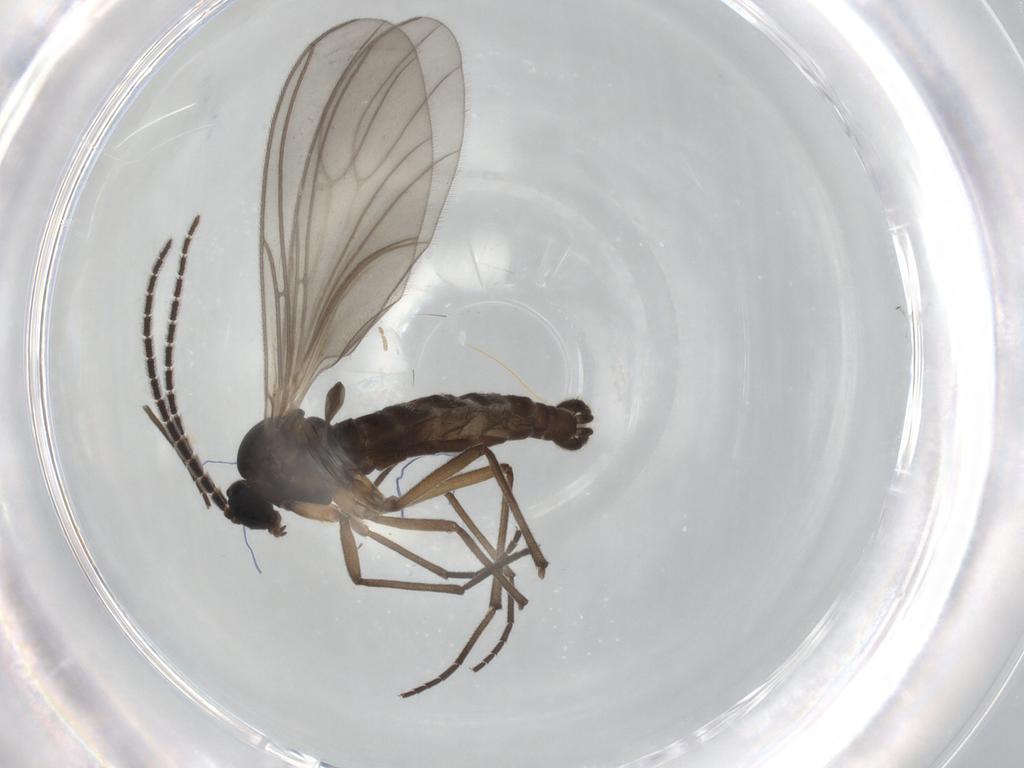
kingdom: Animalia
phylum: Arthropoda
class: Insecta
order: Diptera
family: Sciaridae
